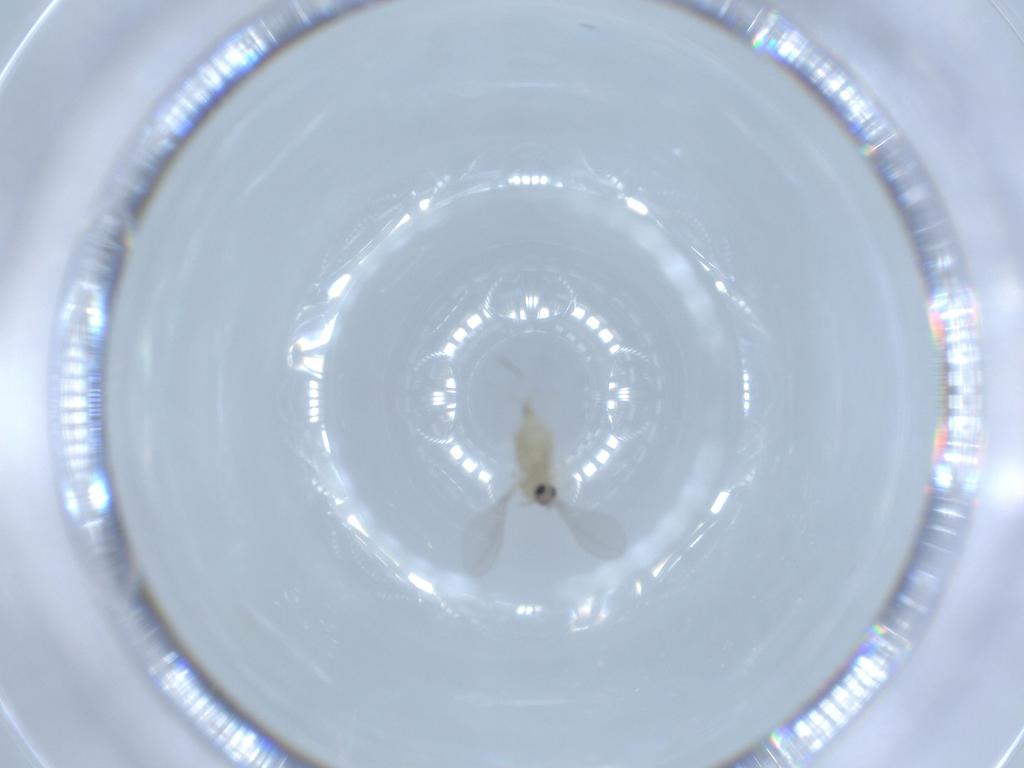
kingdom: Animalia
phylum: Arthropoda
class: Insecta
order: Diptera
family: Cecidomyiidae
